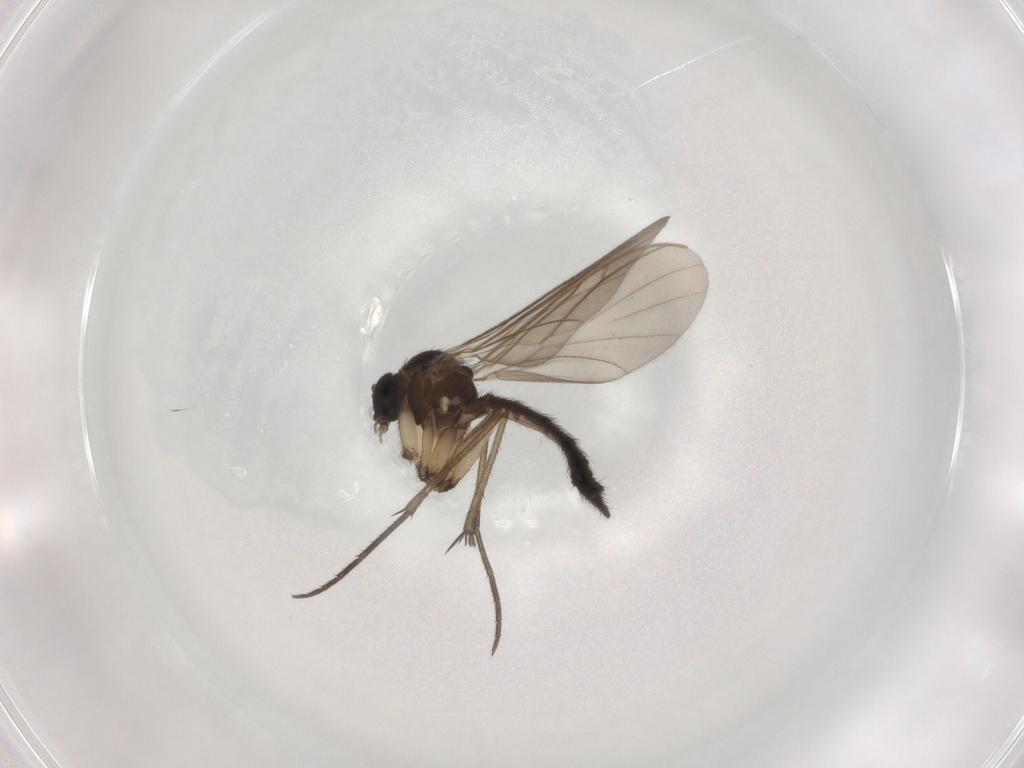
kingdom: Animalia
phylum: Arthropoda
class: Insecta
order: Diptera
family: Keroplatidae
